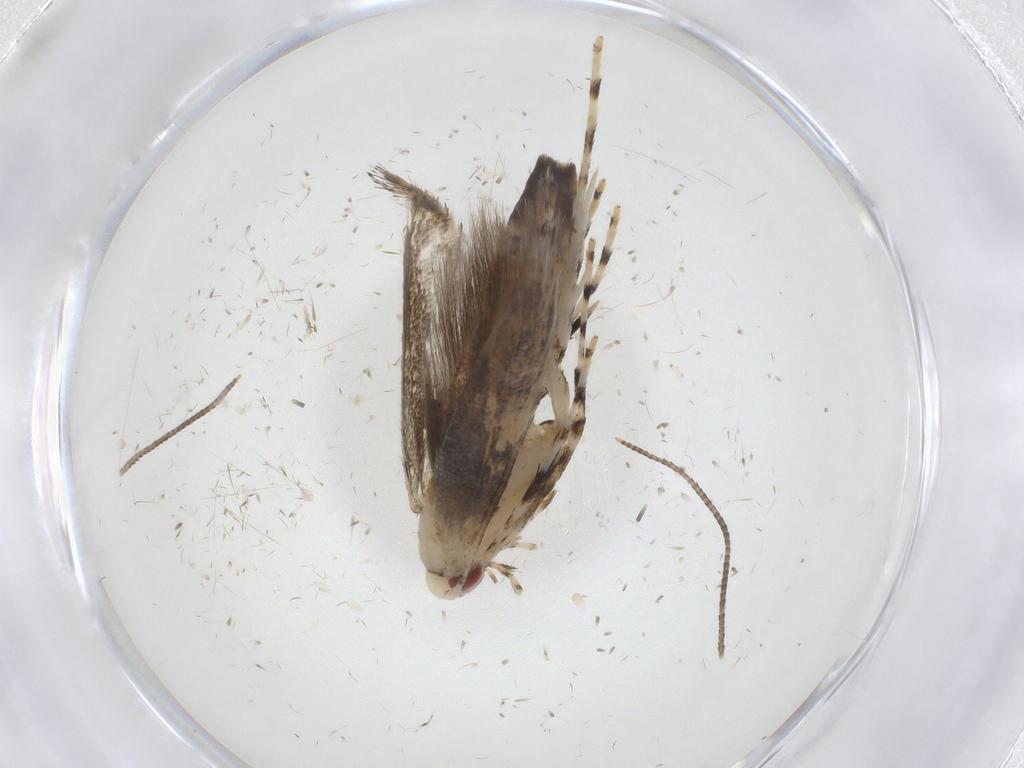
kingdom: Animalia
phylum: Arthropoda
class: Insecta
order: Lepidoptera
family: Gracillariidae
